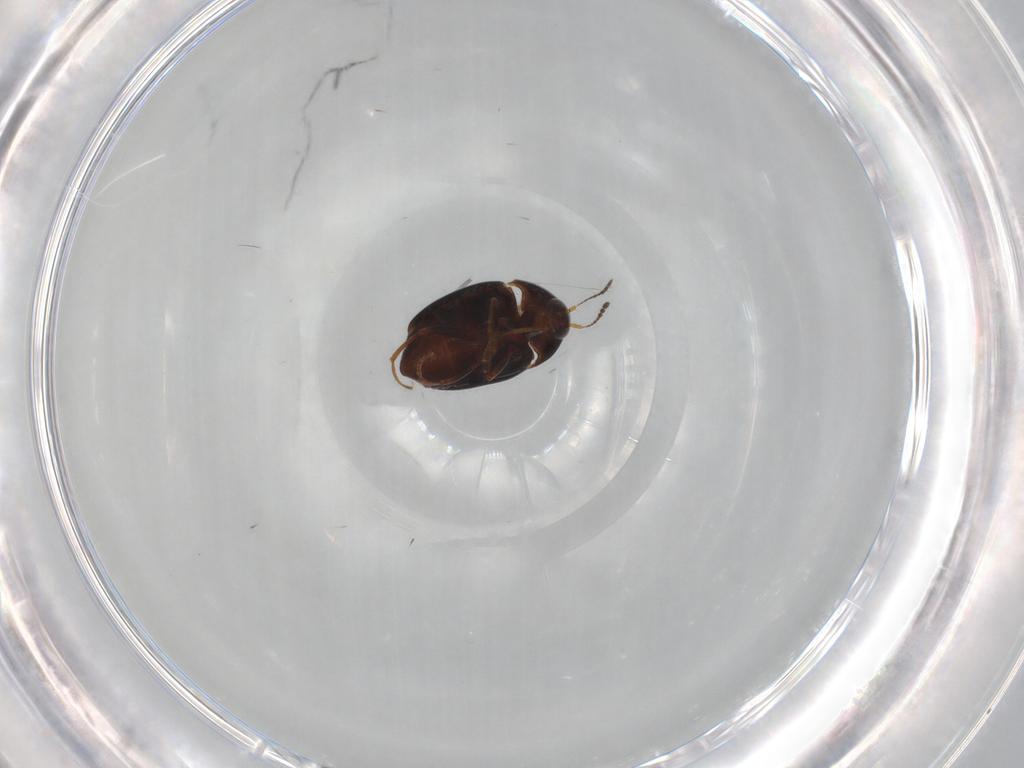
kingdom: Animalia
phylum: Arthropoda
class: Insecta
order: Coleoptera
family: Staphylinidae
